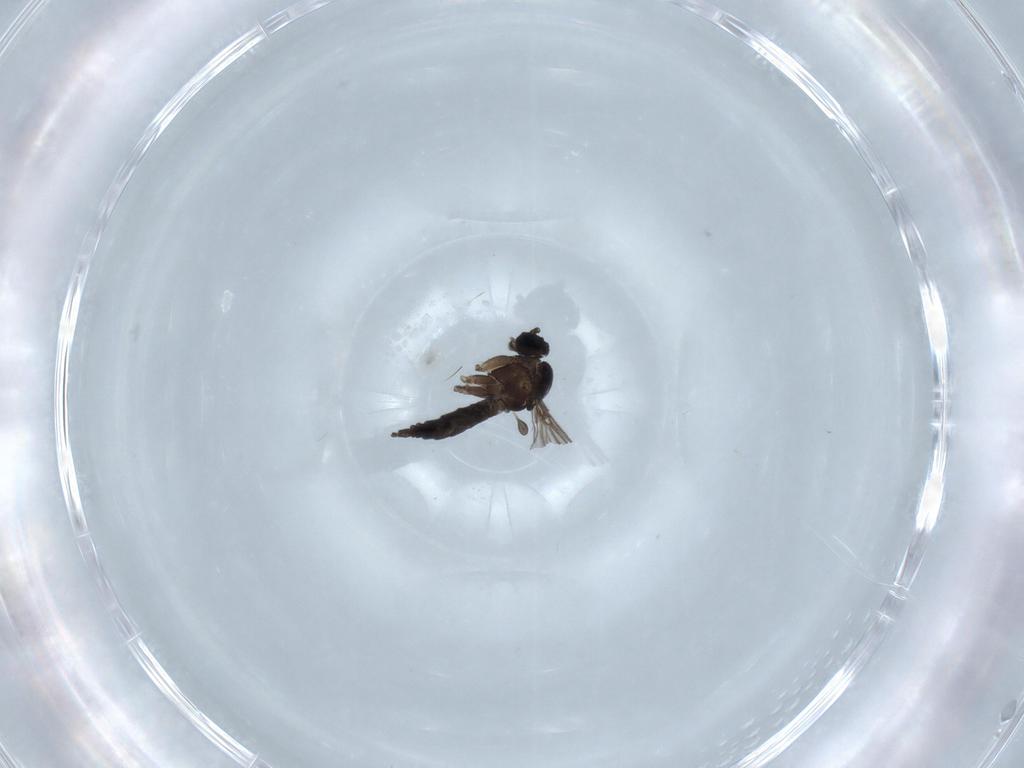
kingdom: Animalia
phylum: Arthropoda
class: Insecta
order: Diptera
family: Sciaridae
